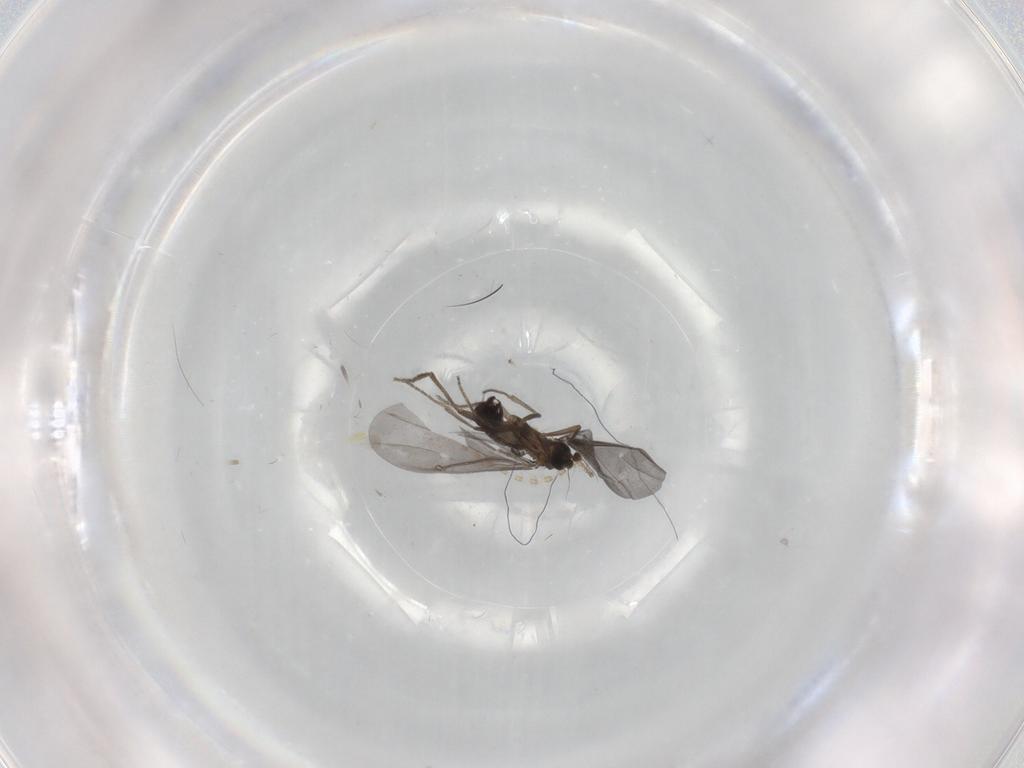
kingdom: Animalia
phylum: Arthropoda
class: Insecta
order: Diptera
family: Phoridae
